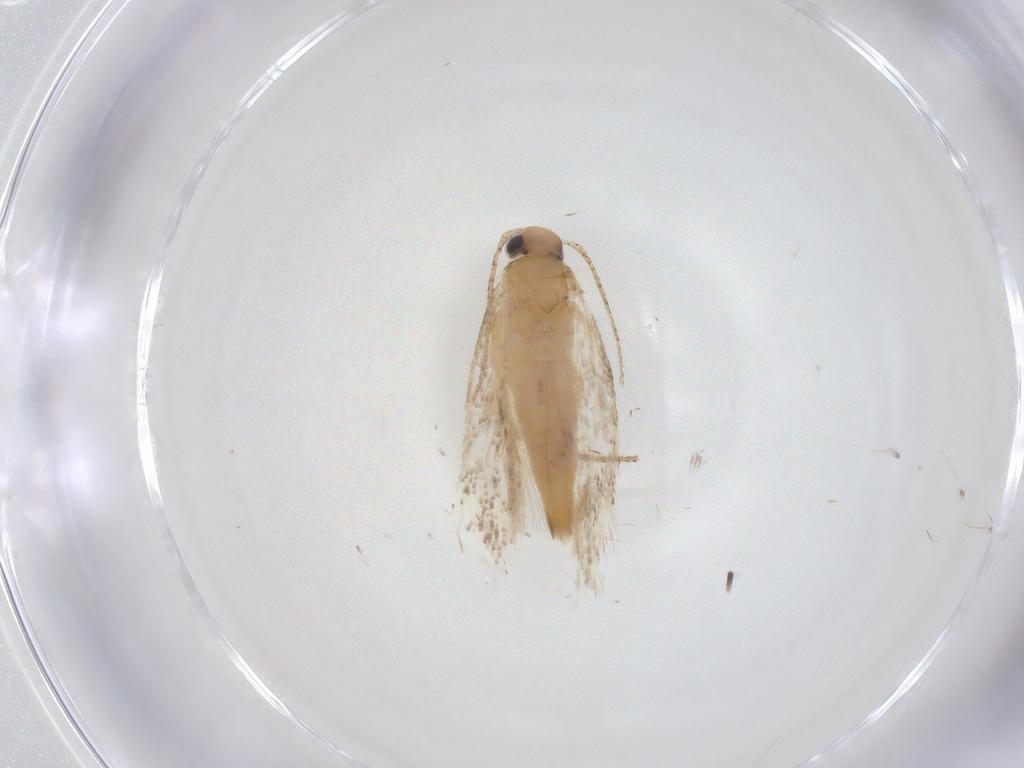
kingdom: Animalia
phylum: Arthropoda
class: Insecta
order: Lepidoptera
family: Gelechiidae
